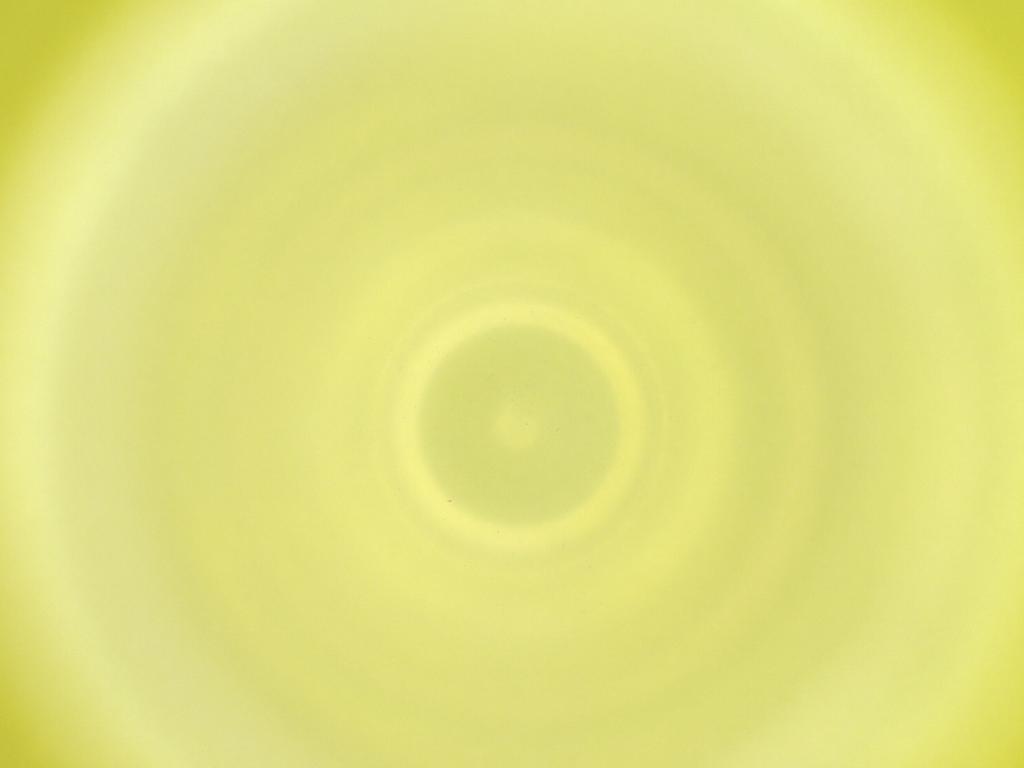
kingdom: Animalia
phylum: Arthropoda
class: Insecta
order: Diptera
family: Cecidomyiidae
